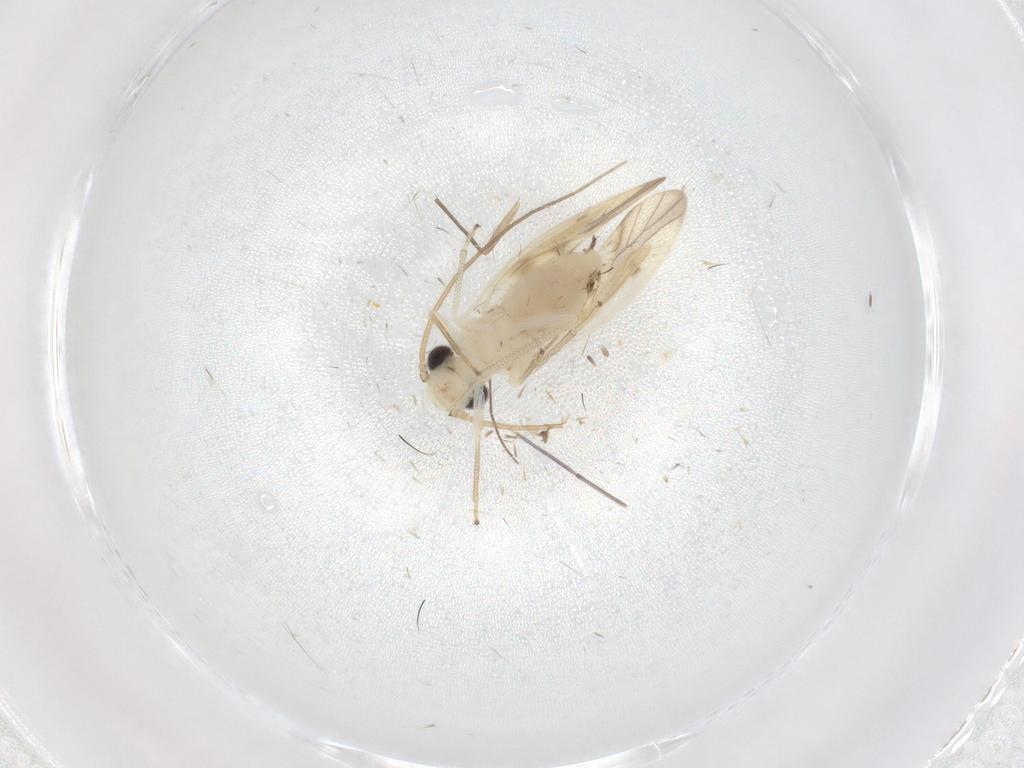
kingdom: Animalia
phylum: Arthropoda
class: Insecta
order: Psocodea
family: Caeciliusidae
